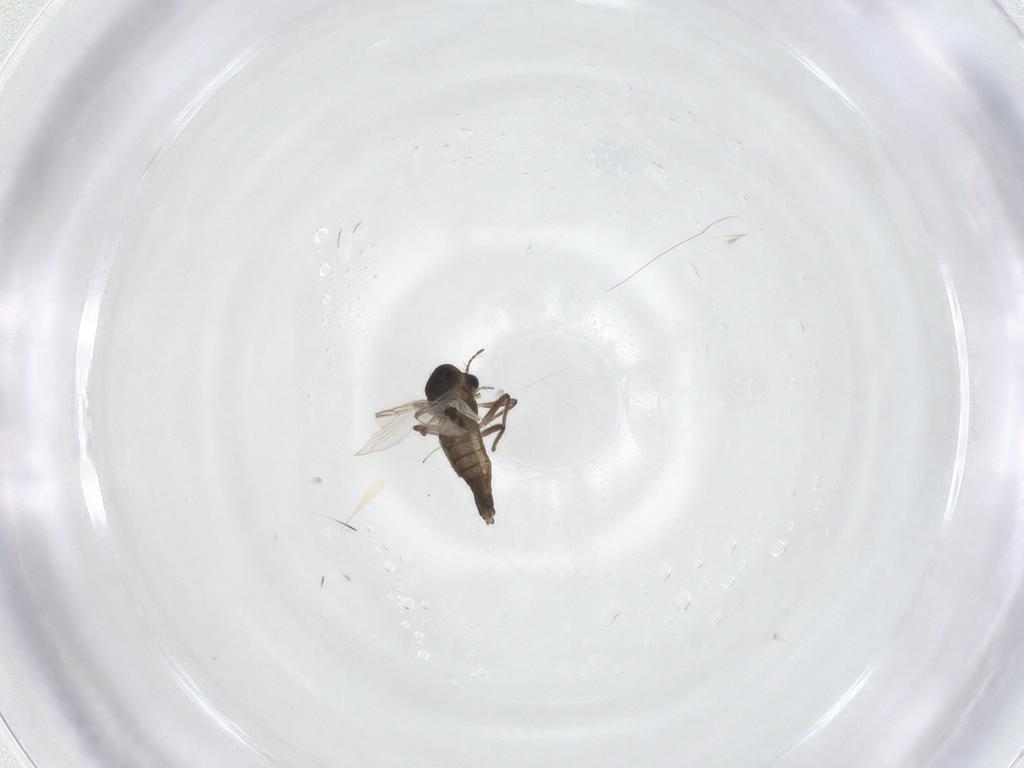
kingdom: Animalia
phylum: Arthropoda
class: Insecta
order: Diptera
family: Chironomidae
